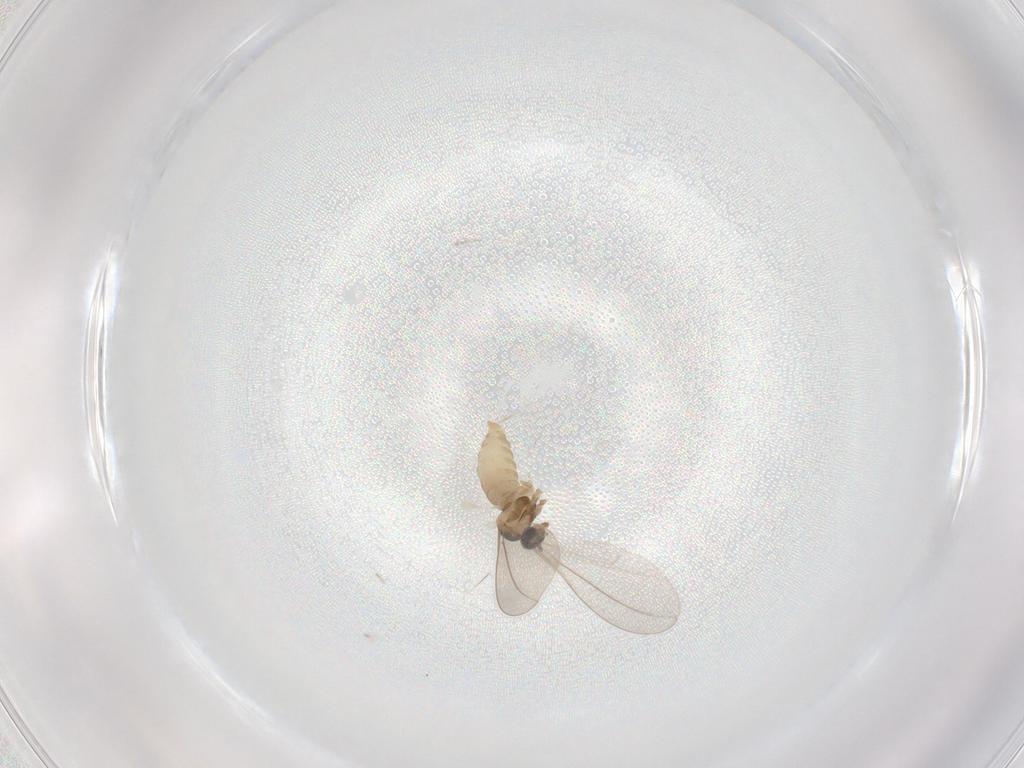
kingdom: Animalia
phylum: Arthropoda
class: Insecta
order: Diptera
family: Cecidomyiidae
